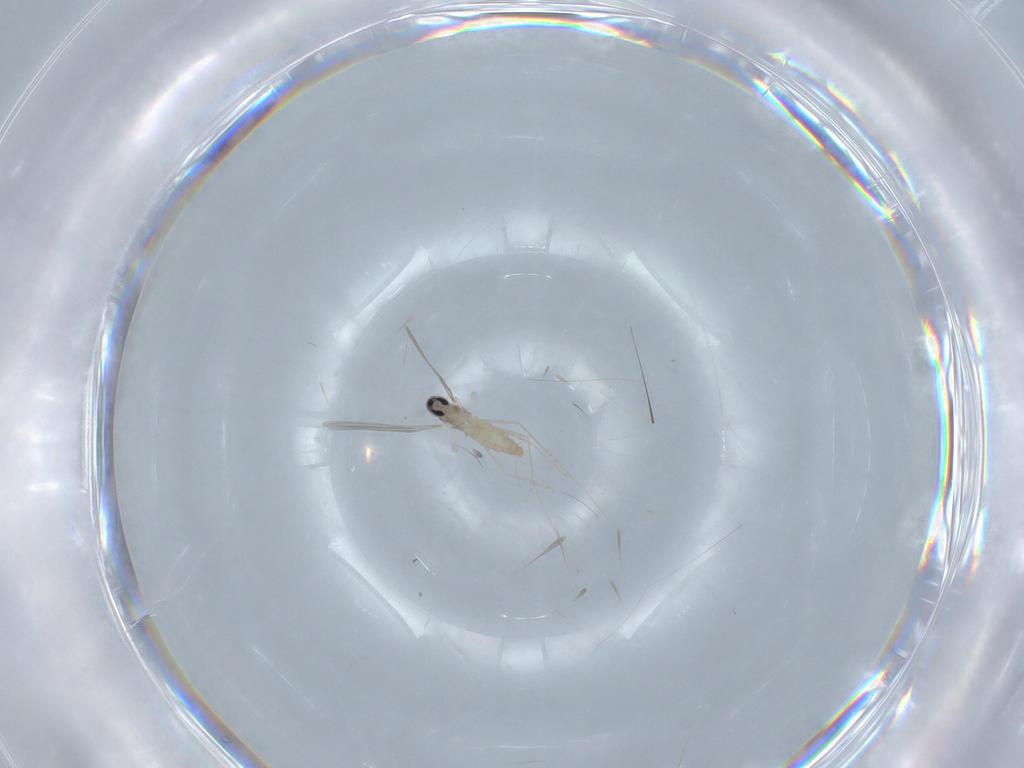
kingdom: Animalia
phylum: Arthropoda
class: Insecta
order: Diptera
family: Cecidomyiidae
